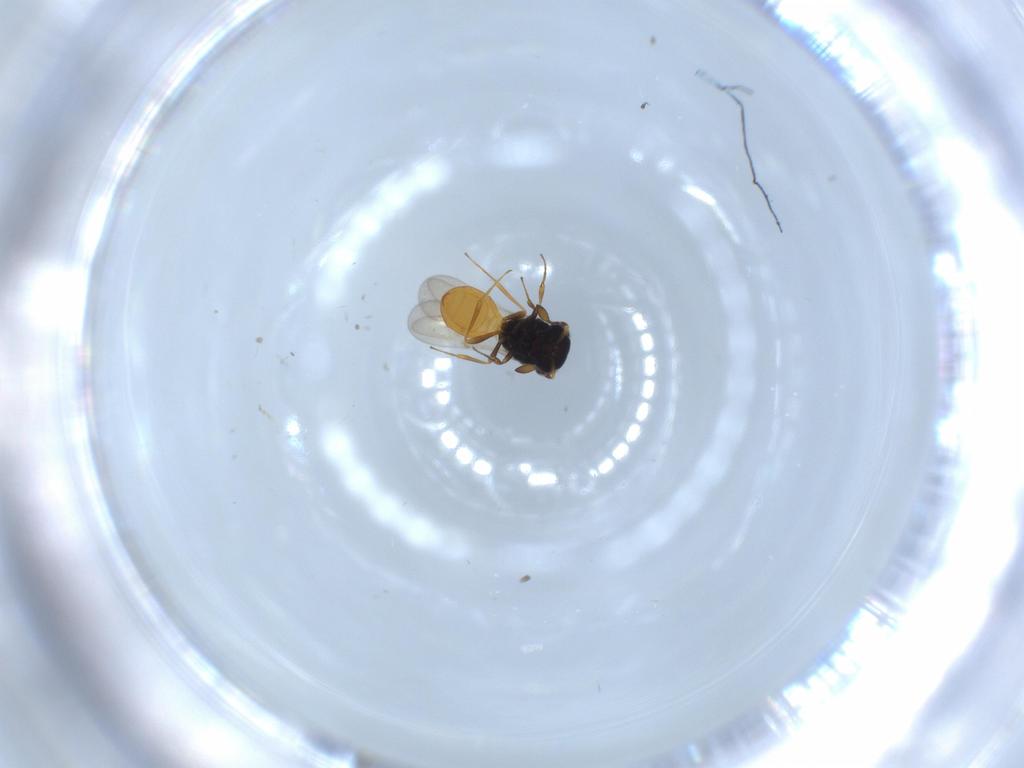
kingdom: Animalia
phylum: Arthropoda
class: Insecta
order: Hymenoptera
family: Scelionidae
